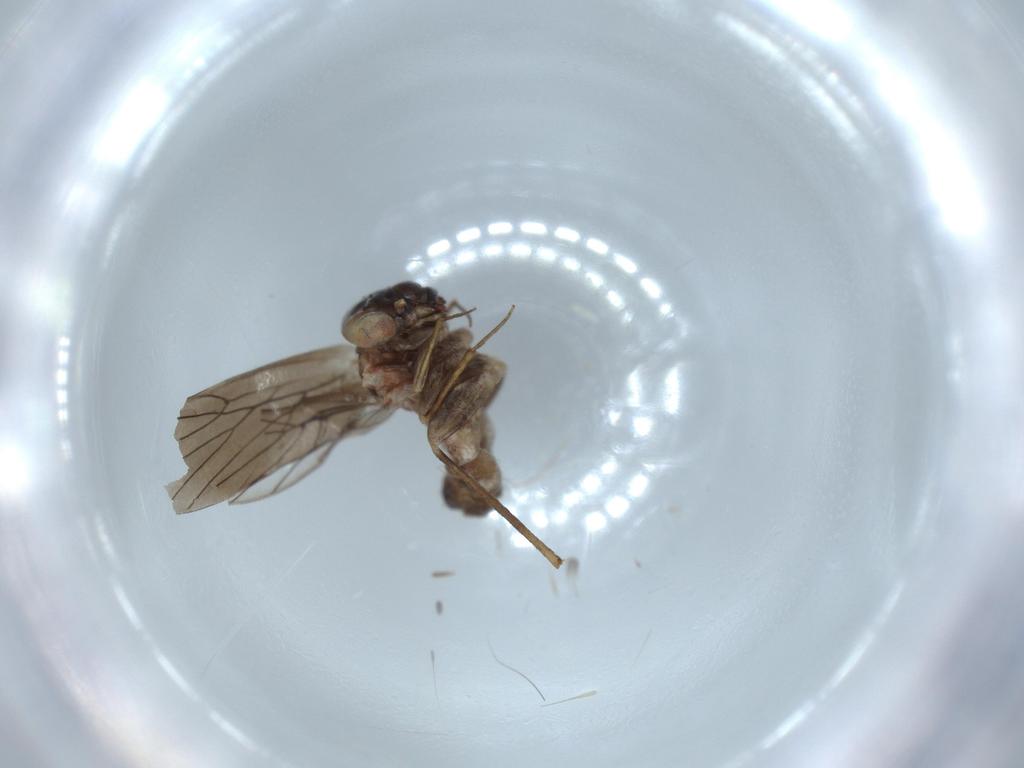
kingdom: Animalia
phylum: Arthropoda
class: Insecta
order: Psocodea
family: Lepidopsocidae
